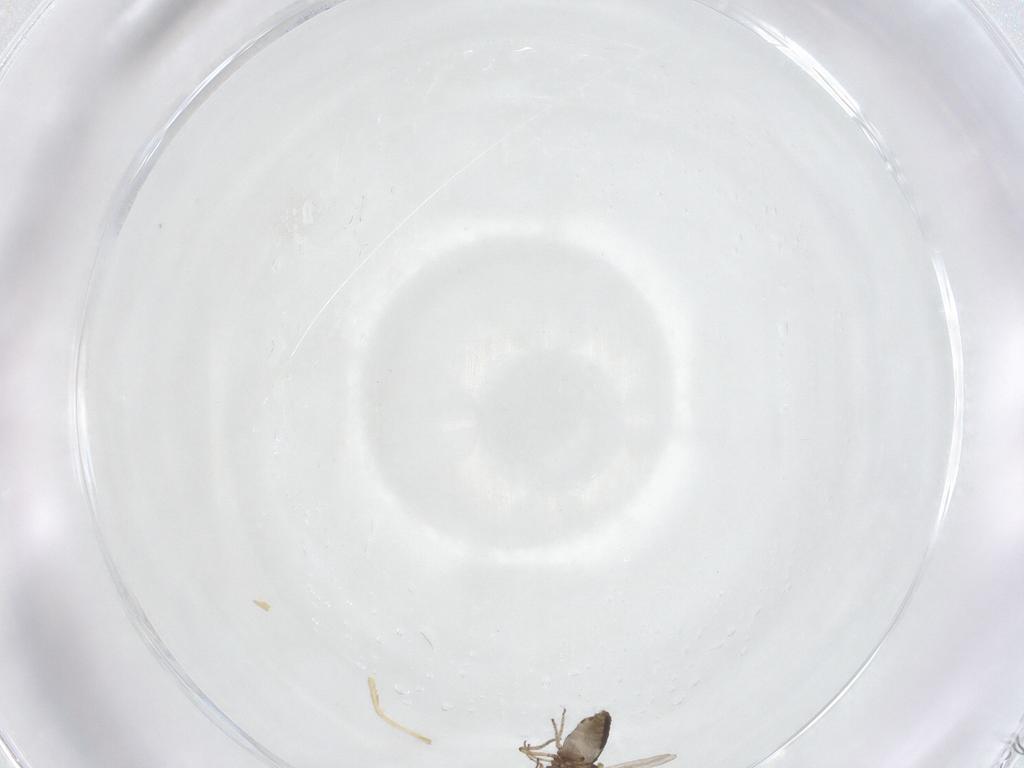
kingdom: Animalia
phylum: Arthropoda
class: Insecta
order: Diptera
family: Ceratopogonidae
